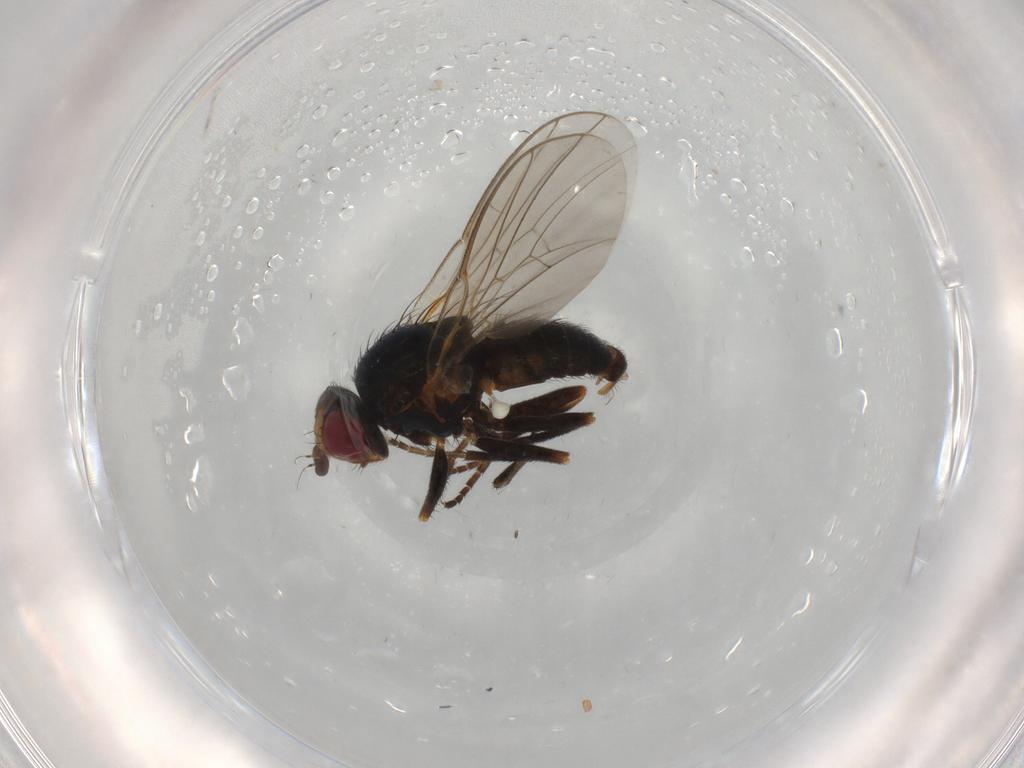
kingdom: Animalia
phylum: Arthropoda
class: Insecta
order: Diptera
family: Agromyzidae
